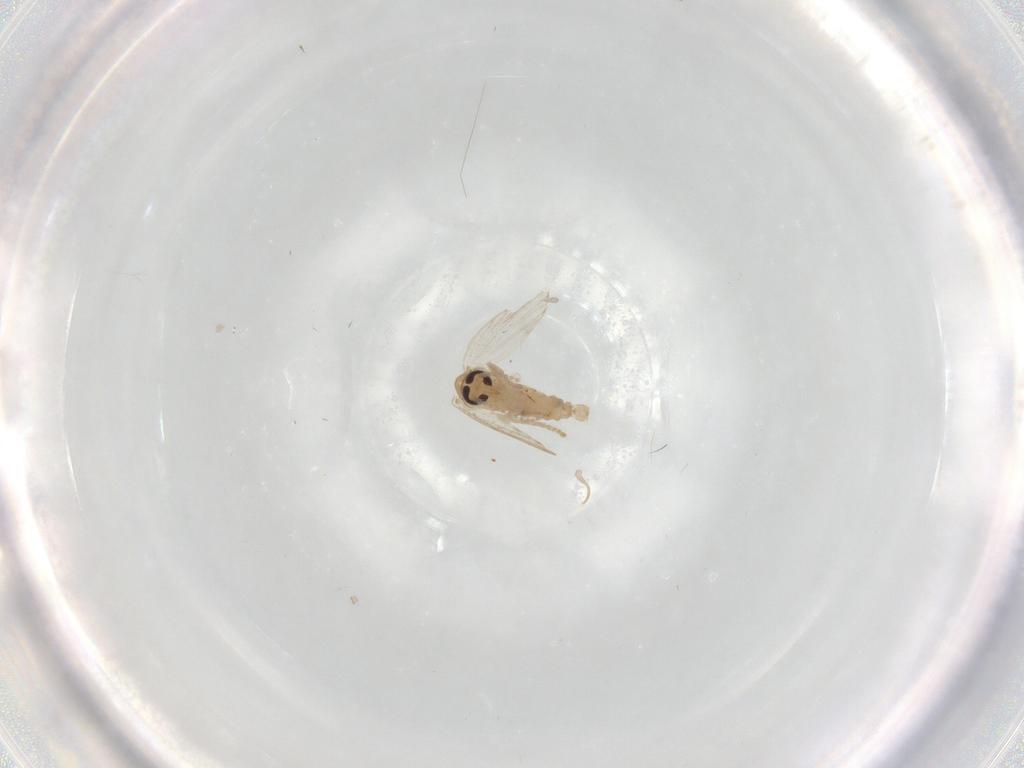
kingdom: Animalia
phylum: Arthropoda
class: Insecta
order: Diptera
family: Psychodidae
